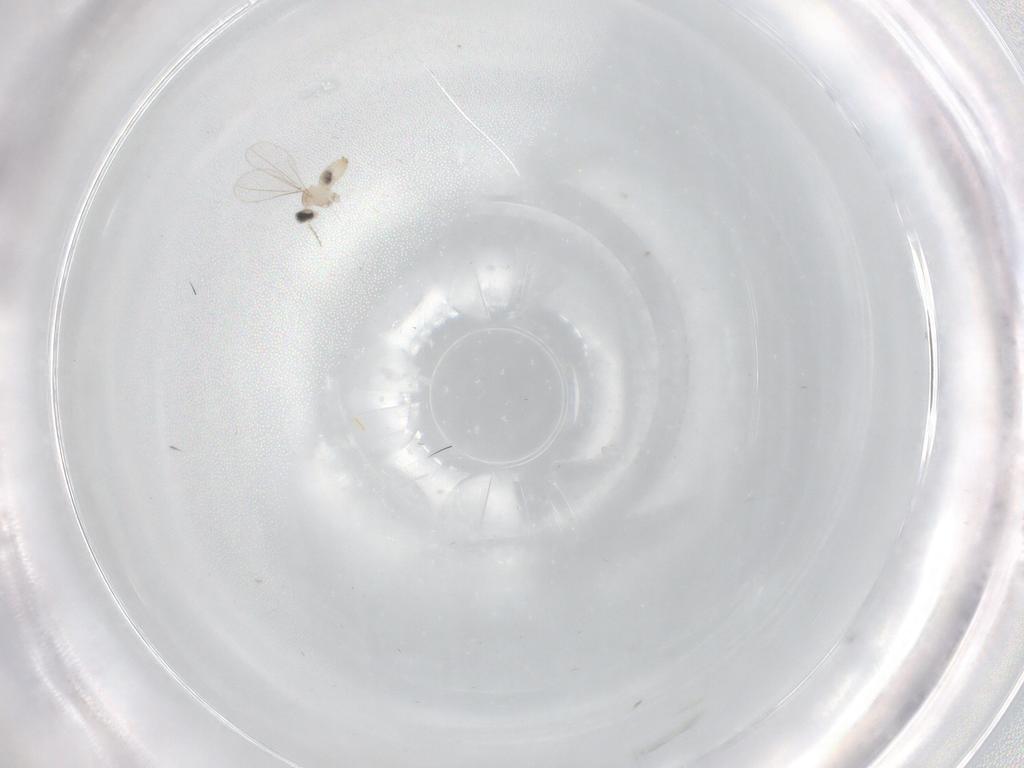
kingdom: Animalia
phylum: Arthropoda
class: Insecta
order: Diptera
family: Cecidomyiidae
